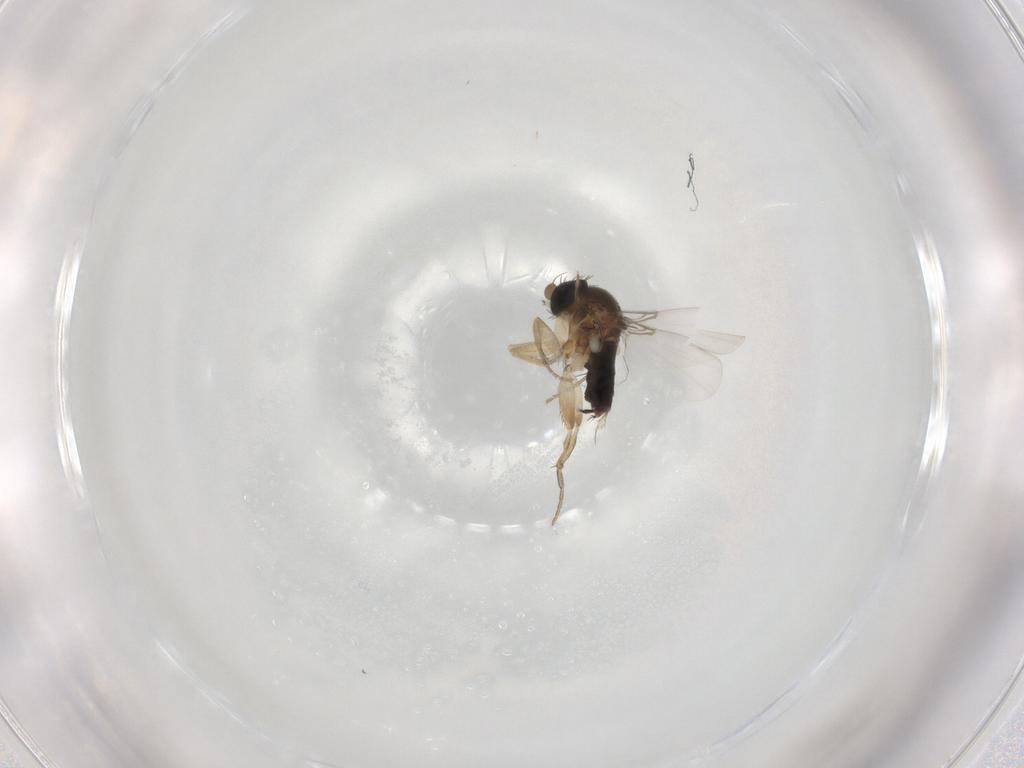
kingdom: Animalia
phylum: Arthropoda
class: Insecta
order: Diptera
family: Phoridae
